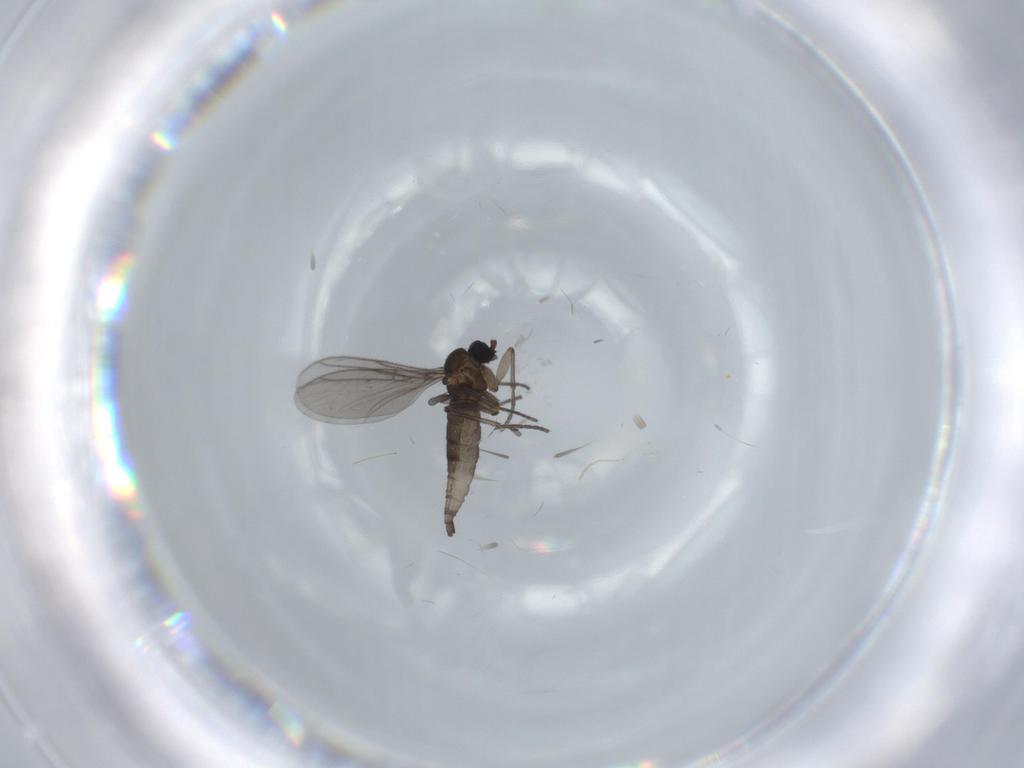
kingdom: Animalia
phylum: Arthropoda
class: Insecta
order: Diptera
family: Cecidomyiidae
